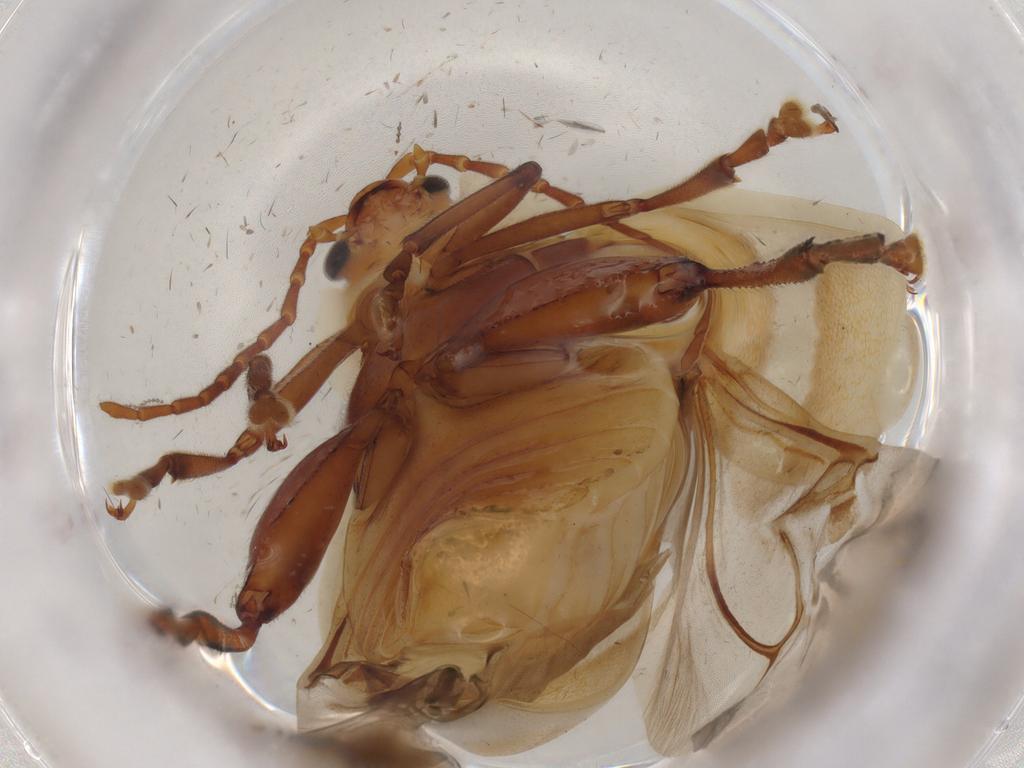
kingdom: Animalia
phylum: Arthropoda
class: Insecta
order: Coleoptera
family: Chrysomelidae
